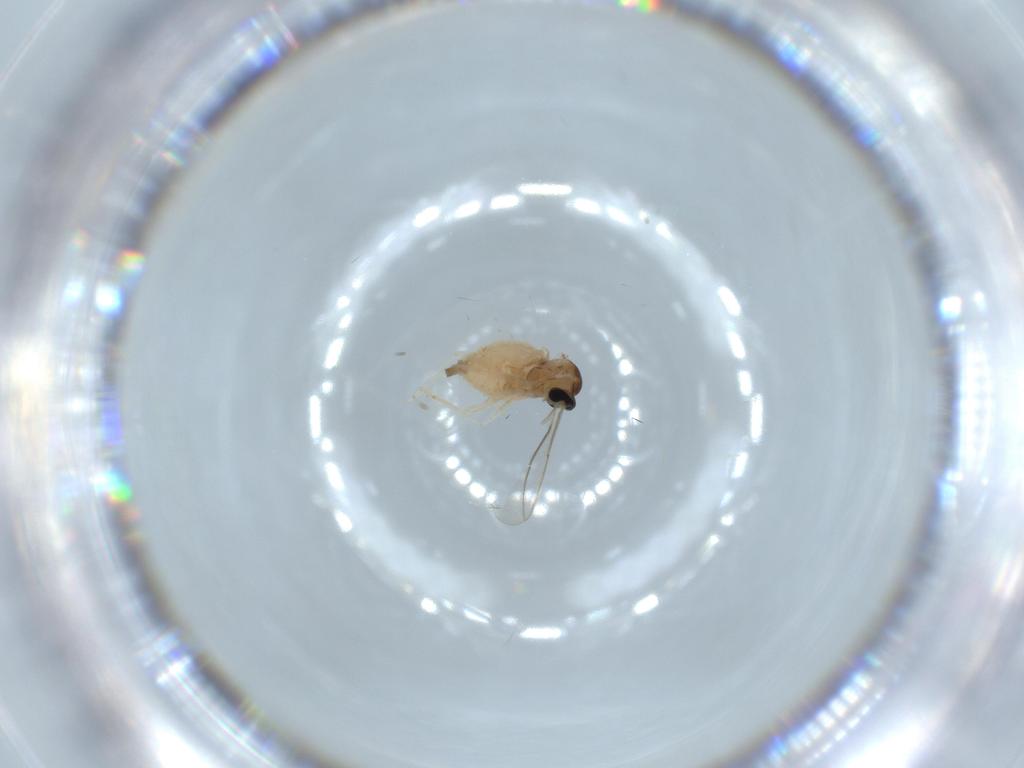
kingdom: Animalia
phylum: Arthropoda
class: Insecta
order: Diptera
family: Cecidomyiidae
